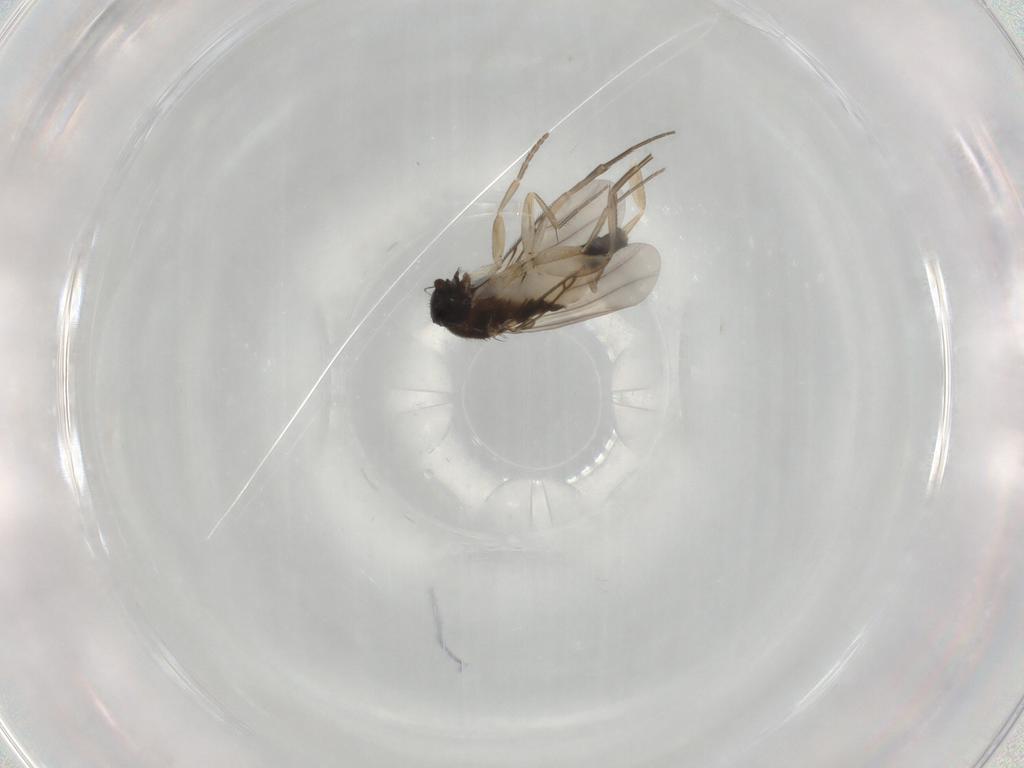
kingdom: Animalia
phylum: Arthropoda
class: Insecta
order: Diptera
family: Phoridae
